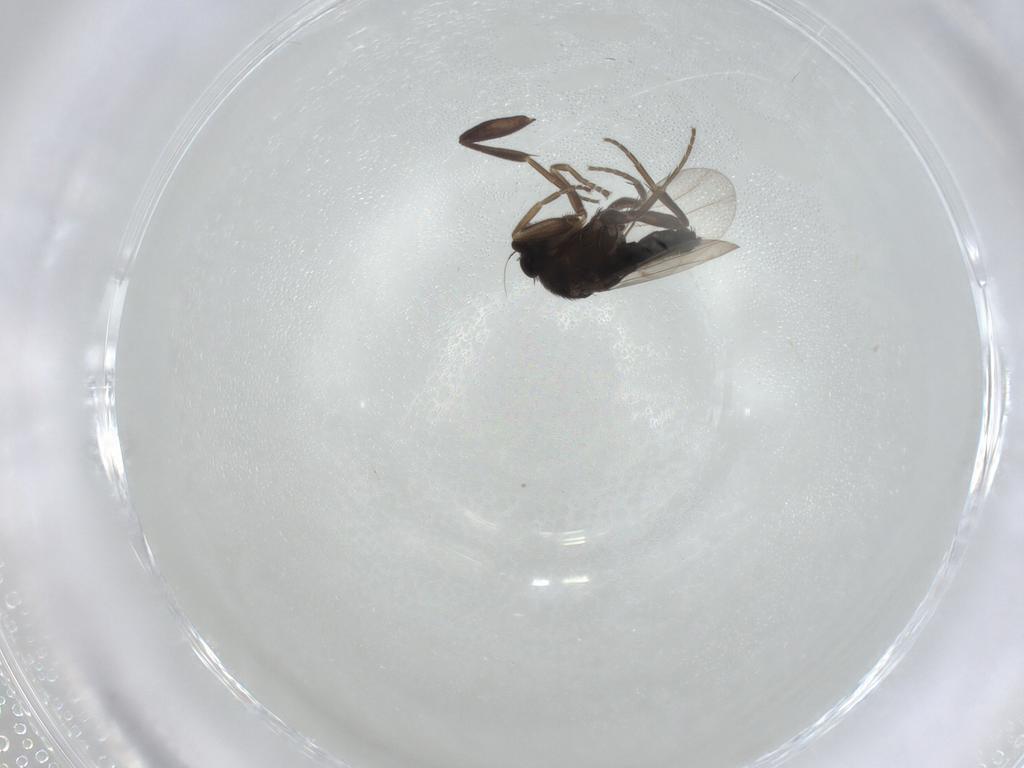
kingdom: Animalia
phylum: Arthropoda
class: Insecta
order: Diptera
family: Phoridae
